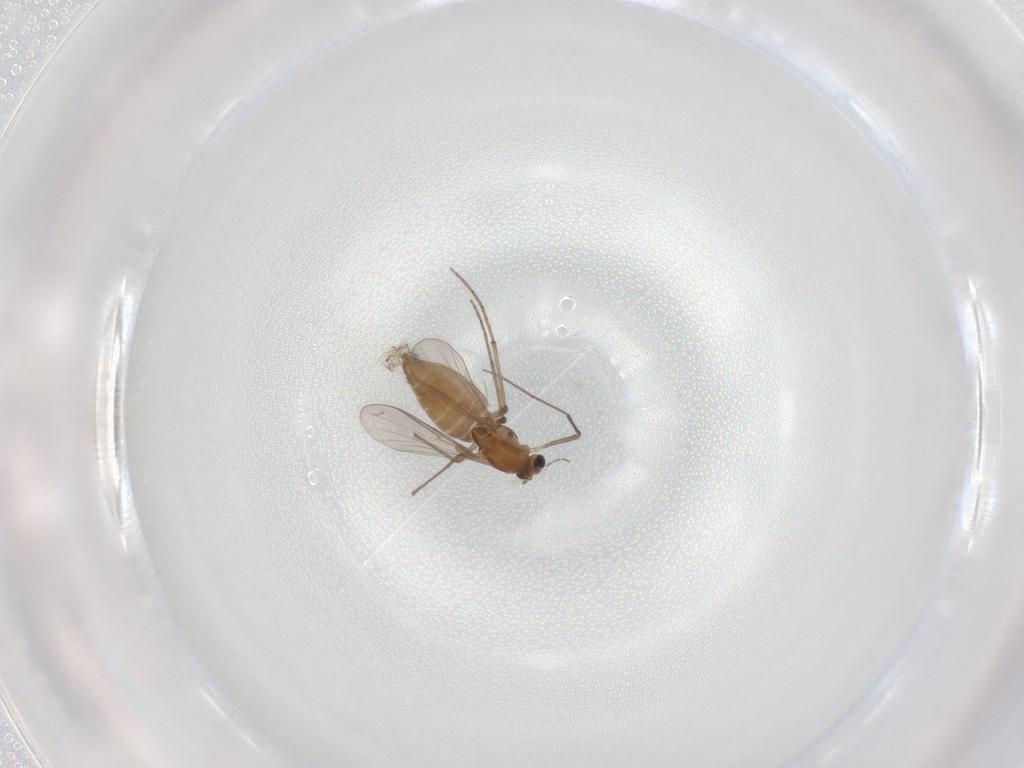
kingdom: Animalia
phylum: Arthropoda
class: Insecta
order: Diptera
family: Chironomidae
